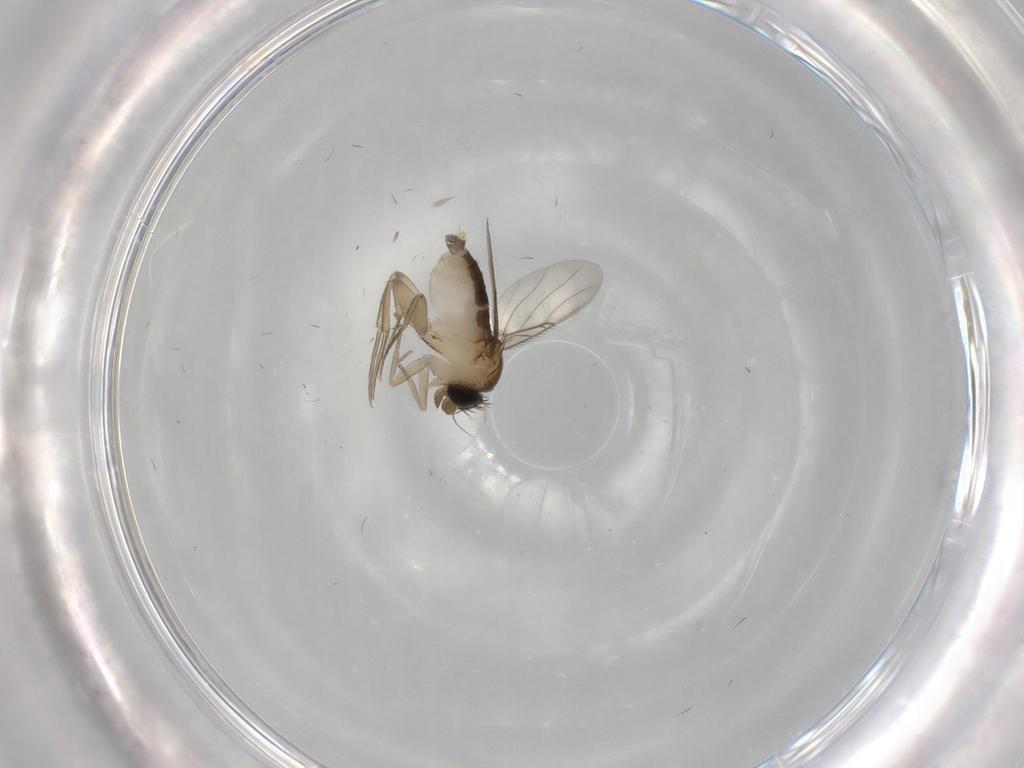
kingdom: Animalia
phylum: Arthropoda
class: Insecta
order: Diptera
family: Phoridae
